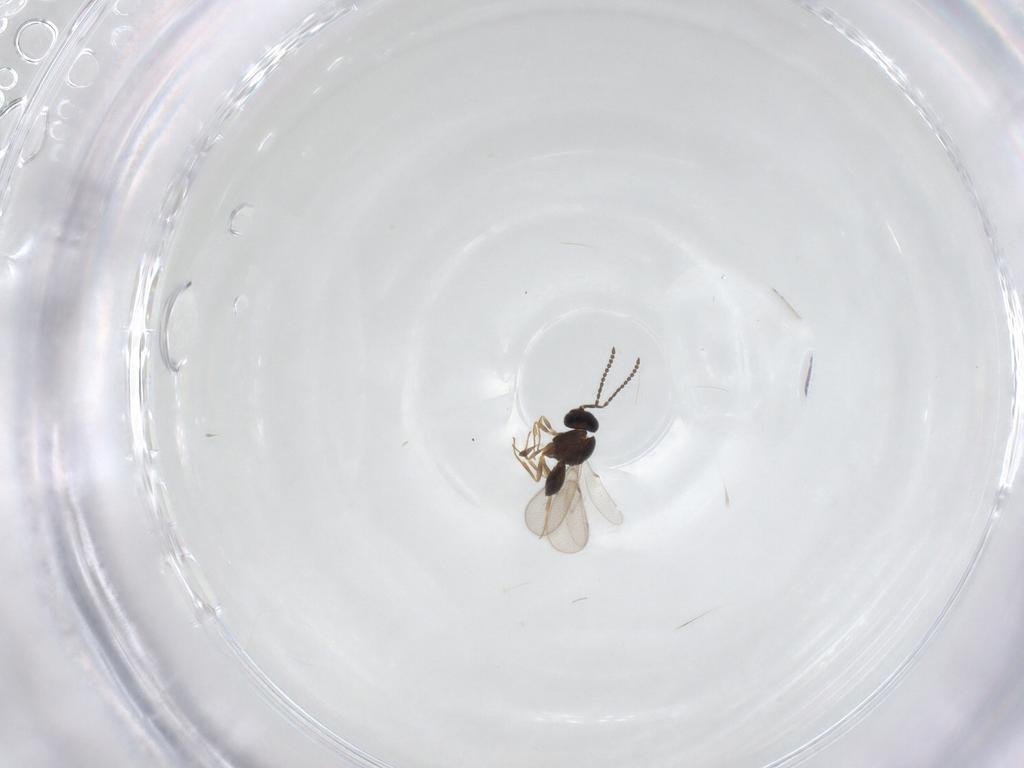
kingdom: Animalia
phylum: Arthropoda
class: Insecta
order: Hymenoptera
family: Scelionidae
